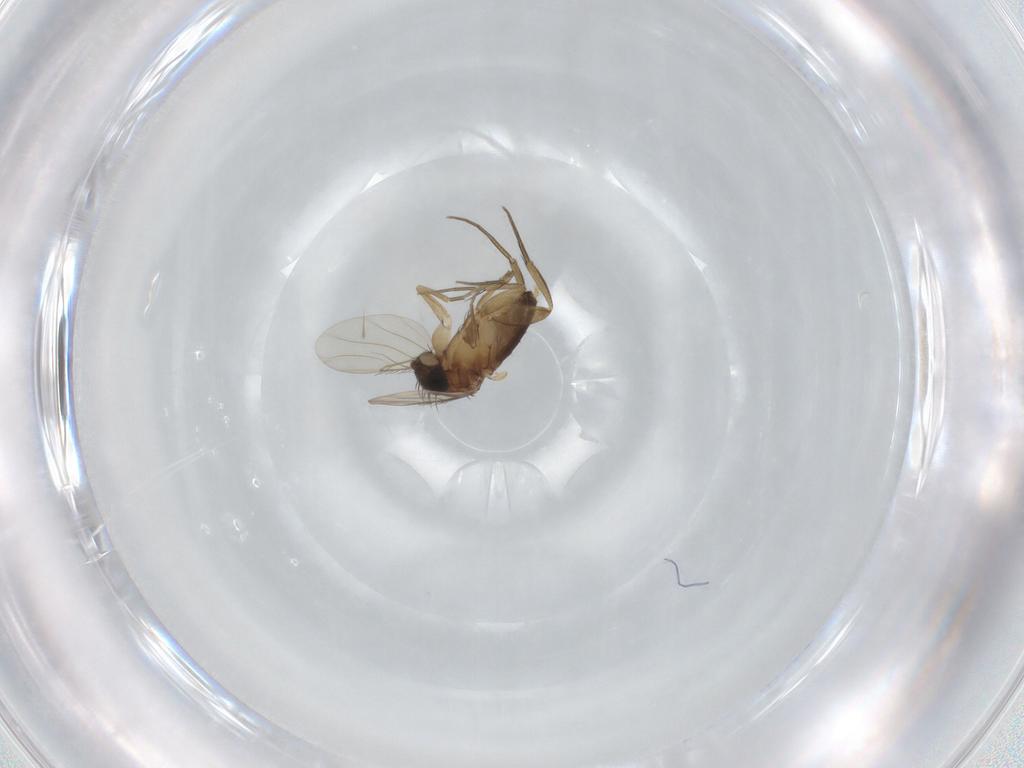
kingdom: Animalia
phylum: Arthropoda
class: Insecta
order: Diptera
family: Phoridae
